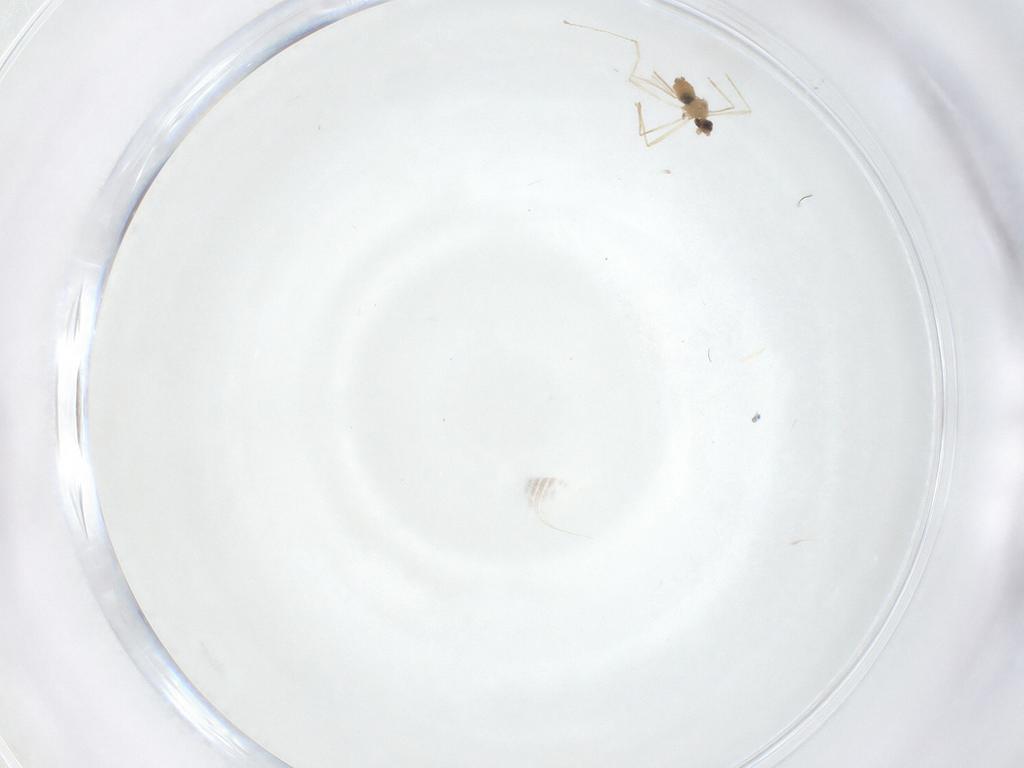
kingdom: Animalia
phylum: Arthropoda
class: Insecta
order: Diptera
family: Cecidomyiidae
